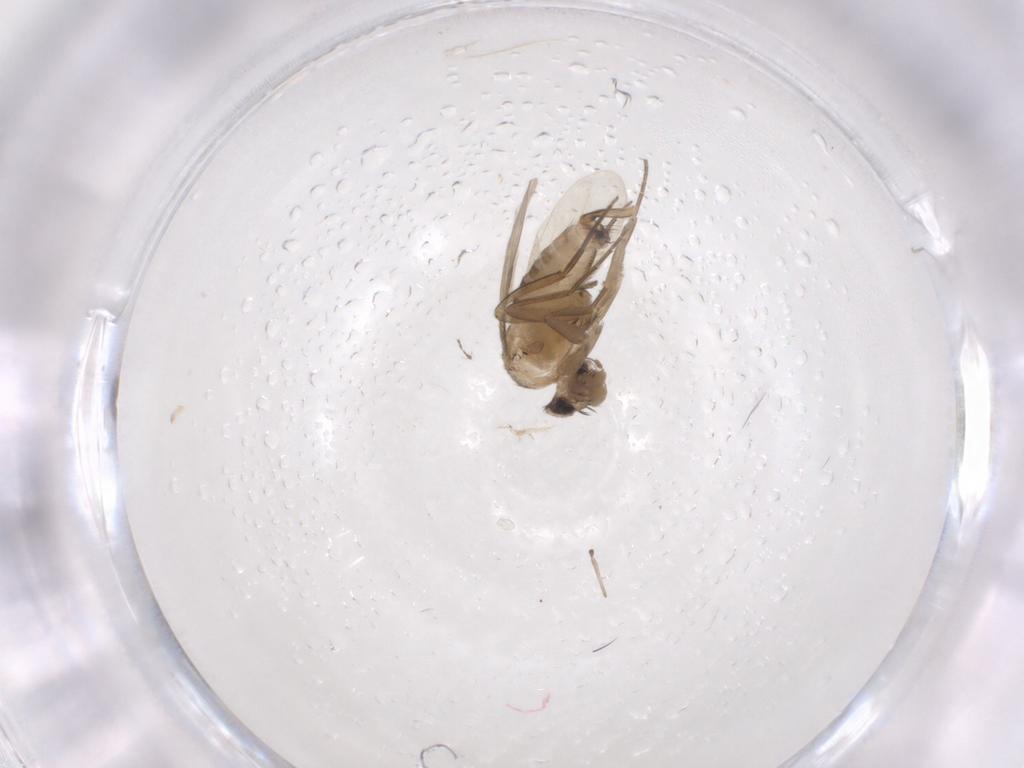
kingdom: Animalia
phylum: Arthropoda
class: Insecta
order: Diptera
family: Phoridae
